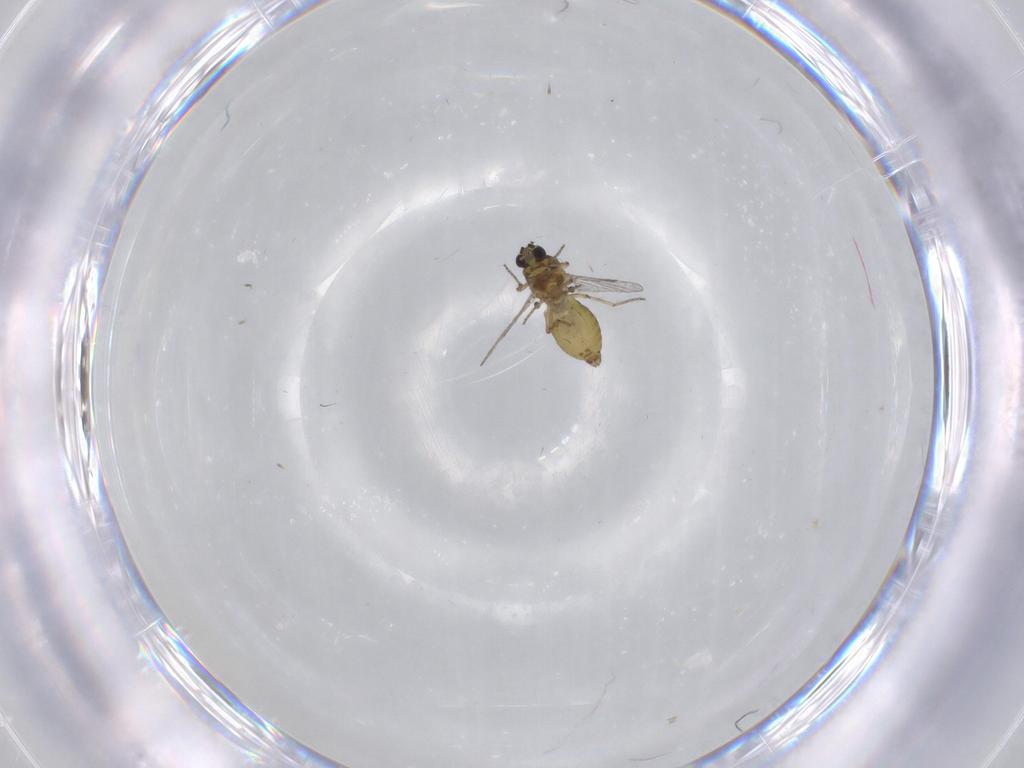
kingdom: Animalia
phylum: Arthropoda
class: Insecta
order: Diptera
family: Ceratopogonidae
